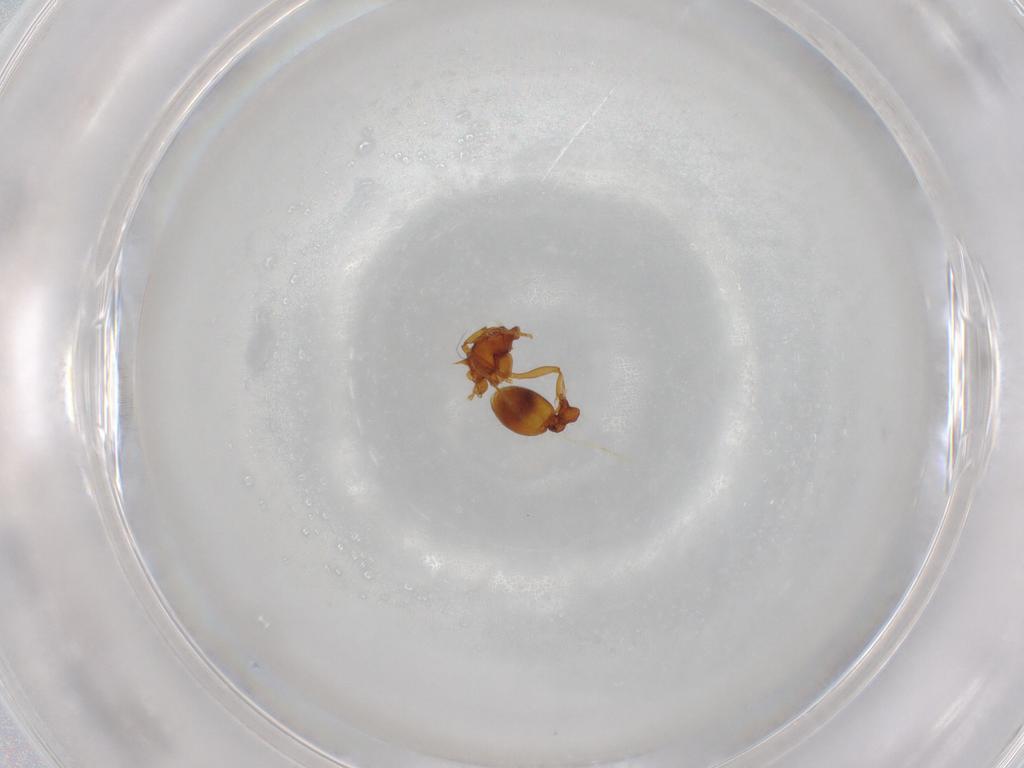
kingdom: Animalia
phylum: Arthropoda
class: Insecta
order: Hymenoptera
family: Formicidae
